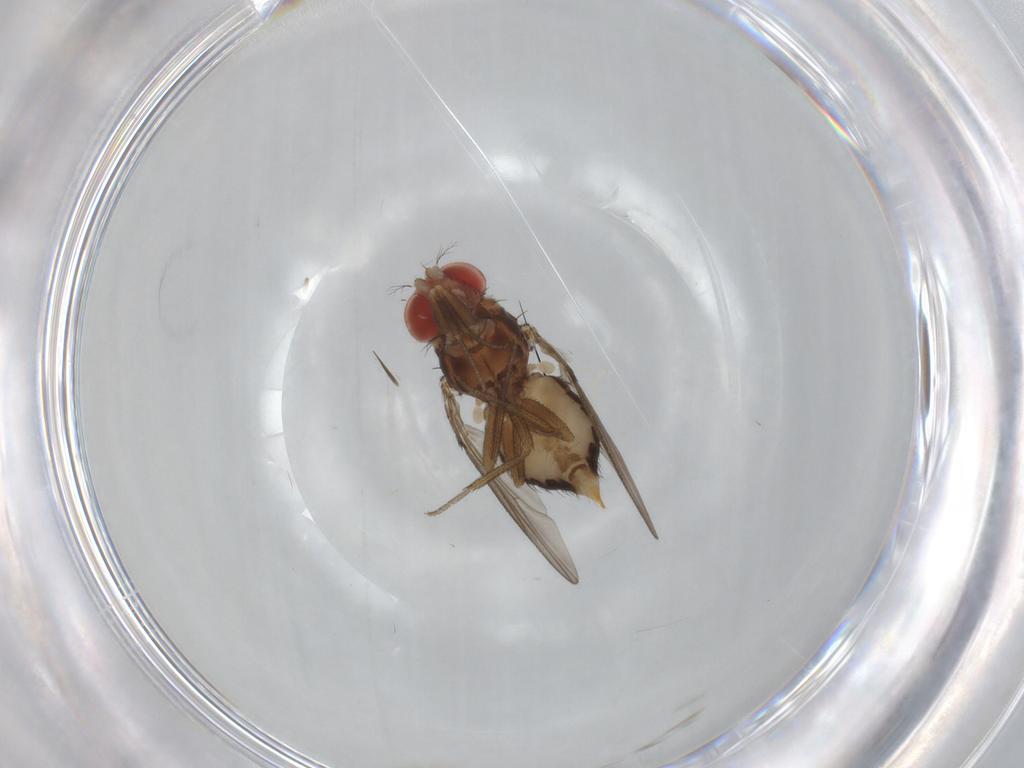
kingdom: Animalia
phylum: Arthropoda
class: Insecta
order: Diptera
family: Drosophilidae
